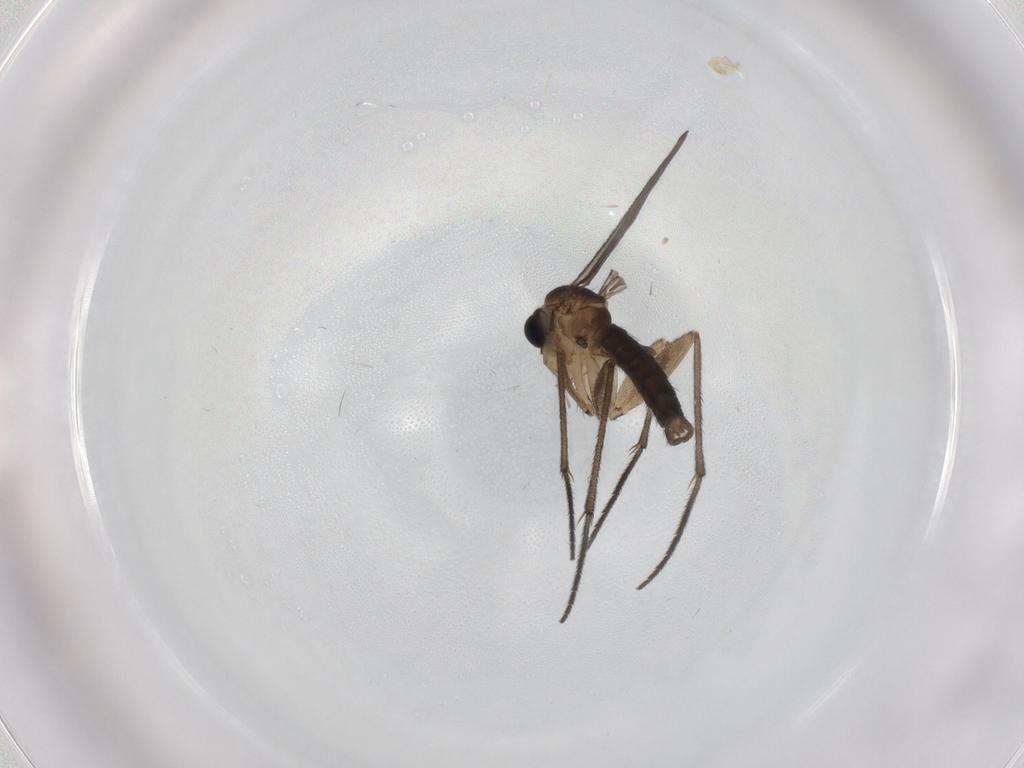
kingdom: Animalia
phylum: Arthropoda
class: Insecta
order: Diptera
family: Sciaridae
